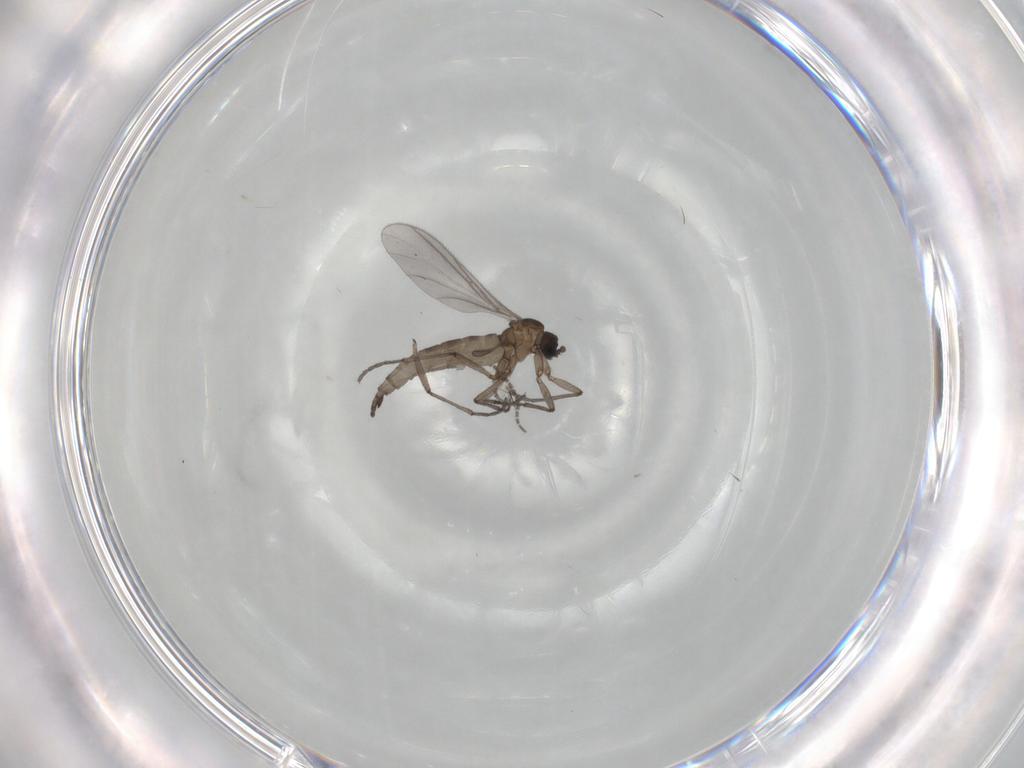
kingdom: Animalia
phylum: Arthropoda
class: Insecta
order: Diptera
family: Sciaridae
